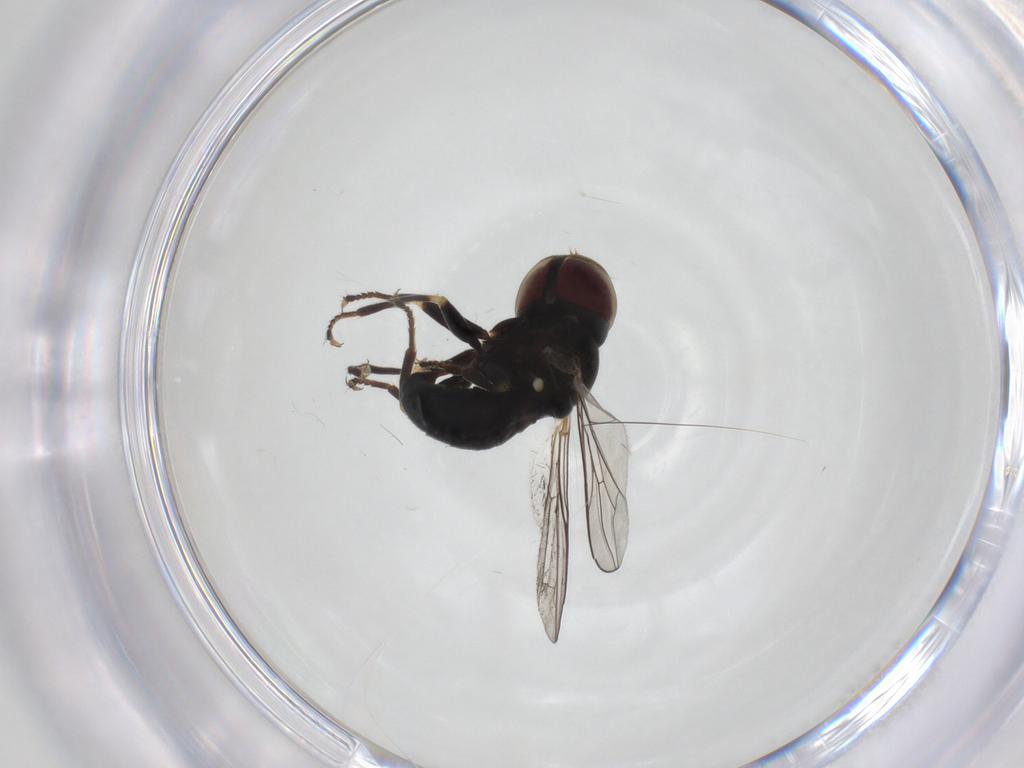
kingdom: Animalia
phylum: Arthropoda
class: Insecta
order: Diptera
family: Pipunculidae
